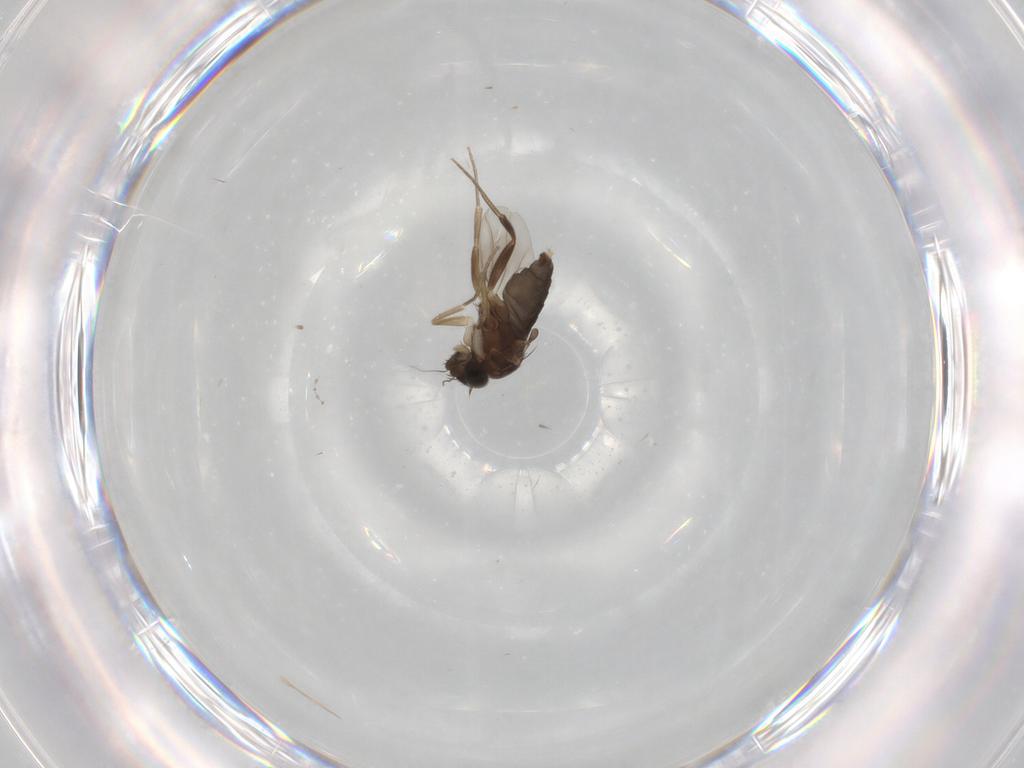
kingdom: Animalia
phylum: Arthropoda
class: Insecta
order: Diptera
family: Phoridae
